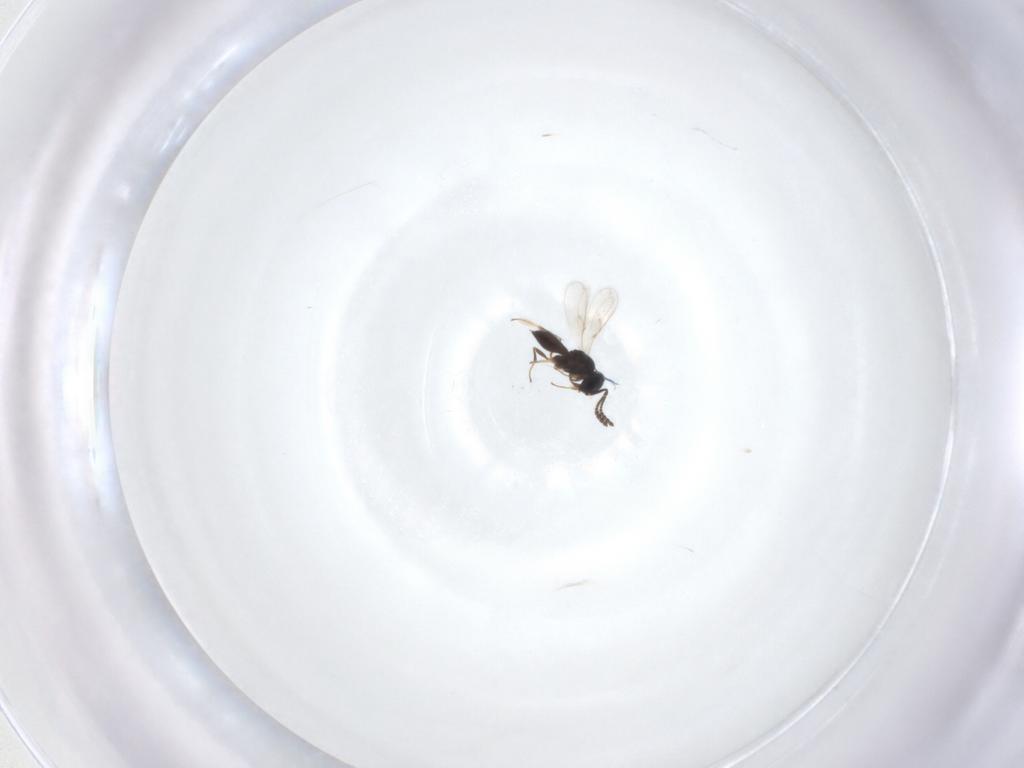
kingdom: Animalia
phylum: Arthropoda
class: Insecta
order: Hymenoptera
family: Scelionidae
